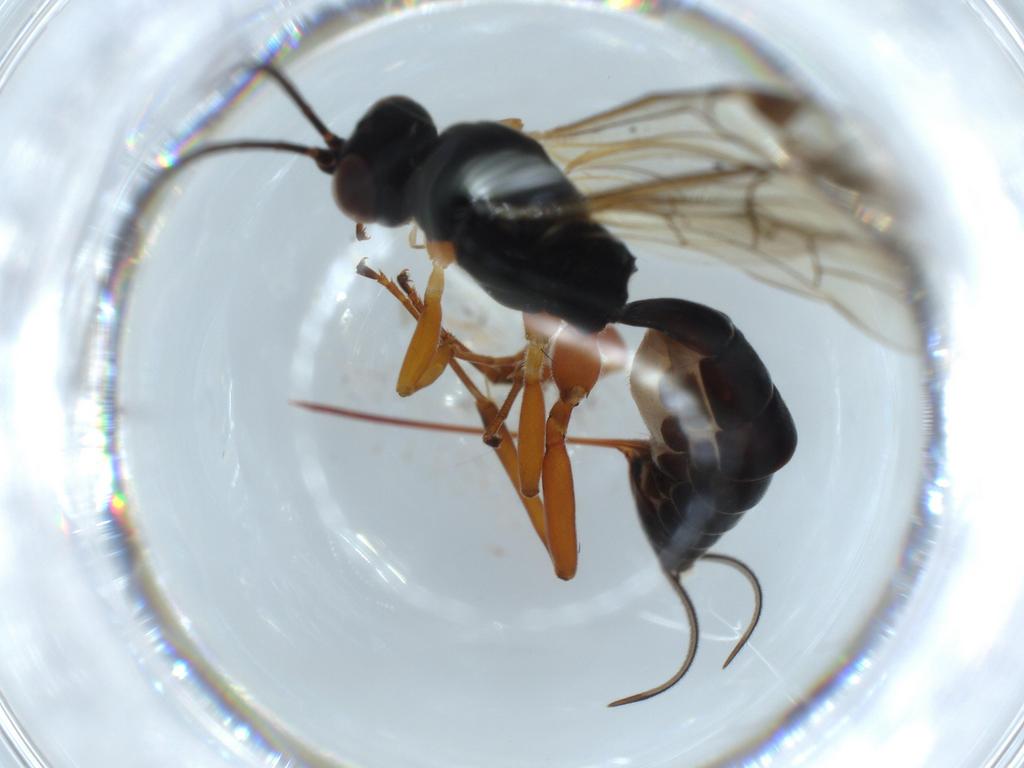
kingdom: Animalia
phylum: Arthropoda
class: Insecta
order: Hymenoptera
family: Ichneumonidae
